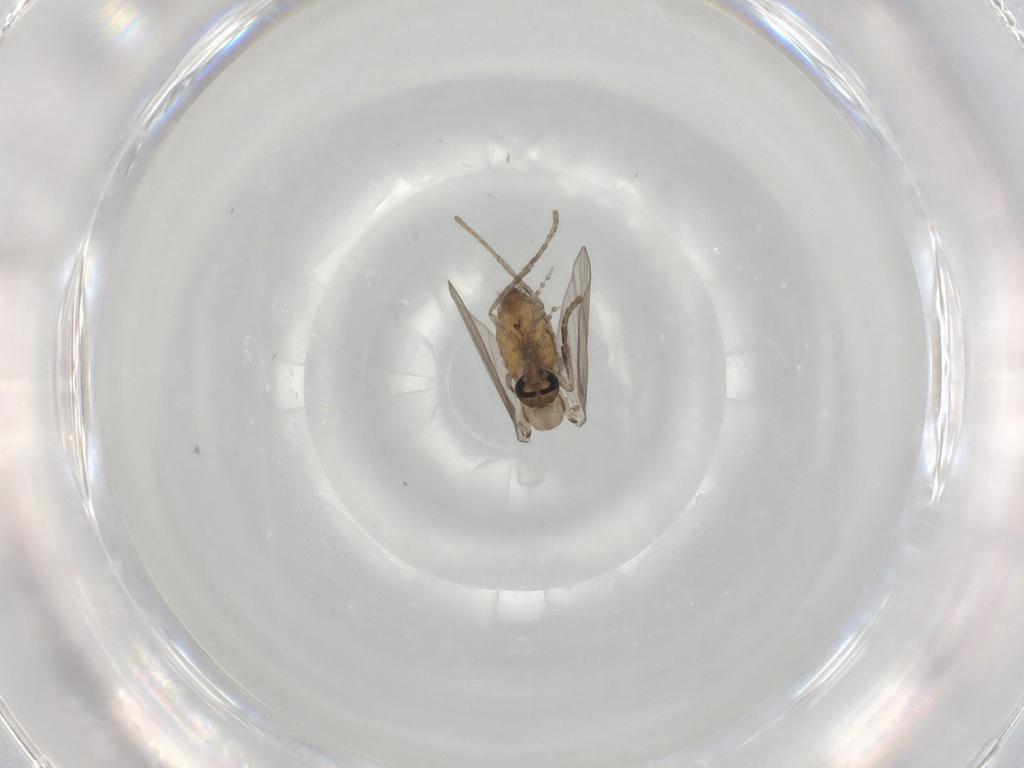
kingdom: Animalia
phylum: Arthropoda
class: Insecta
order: Diptera
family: Psychodidae
